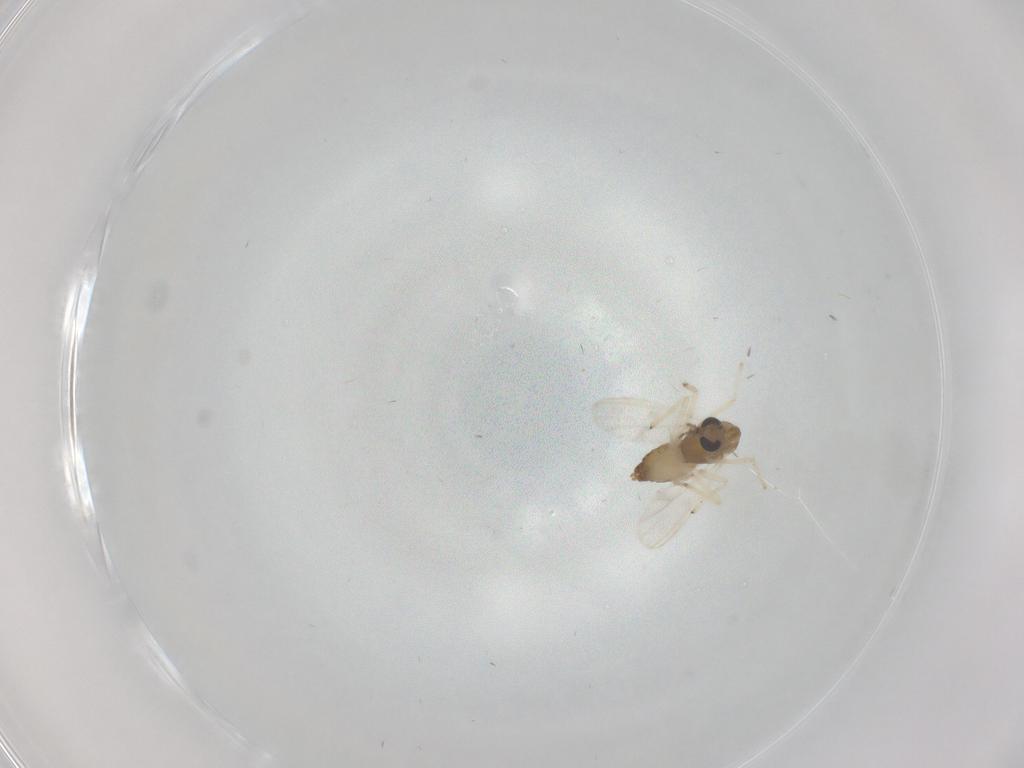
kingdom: Animalia
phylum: Arthropoda
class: Insecta
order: Diptera
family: Chironomidae
